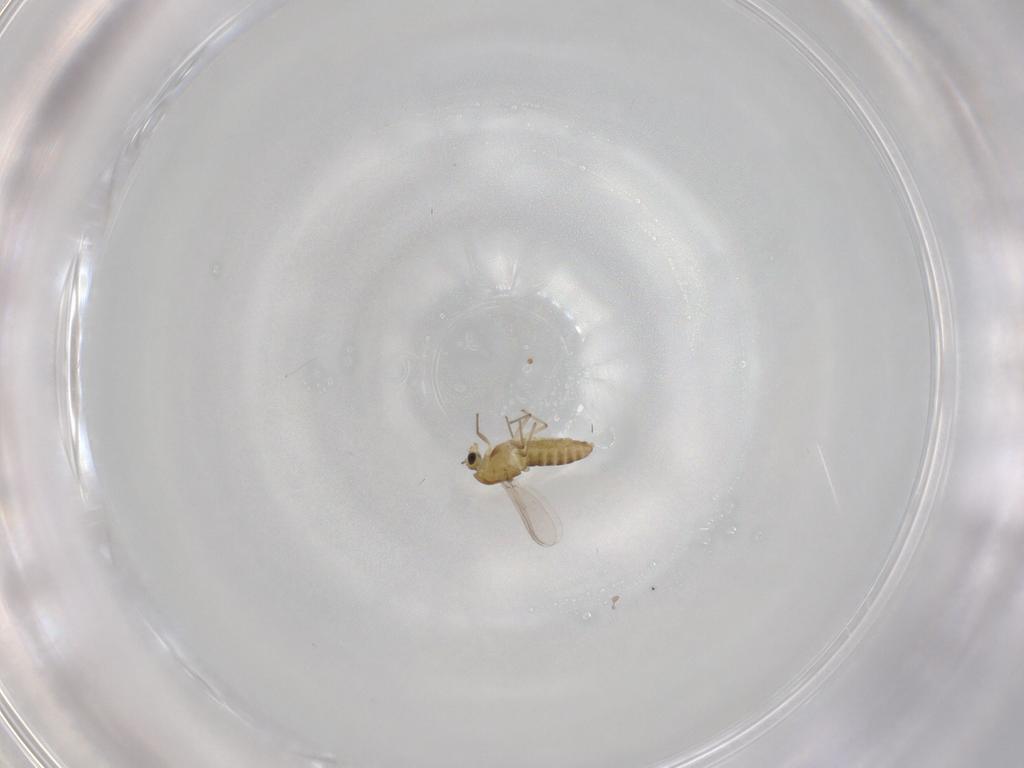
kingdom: Animalia
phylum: Arthropoda
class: Insecta
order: Diptera
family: Chironomidae
